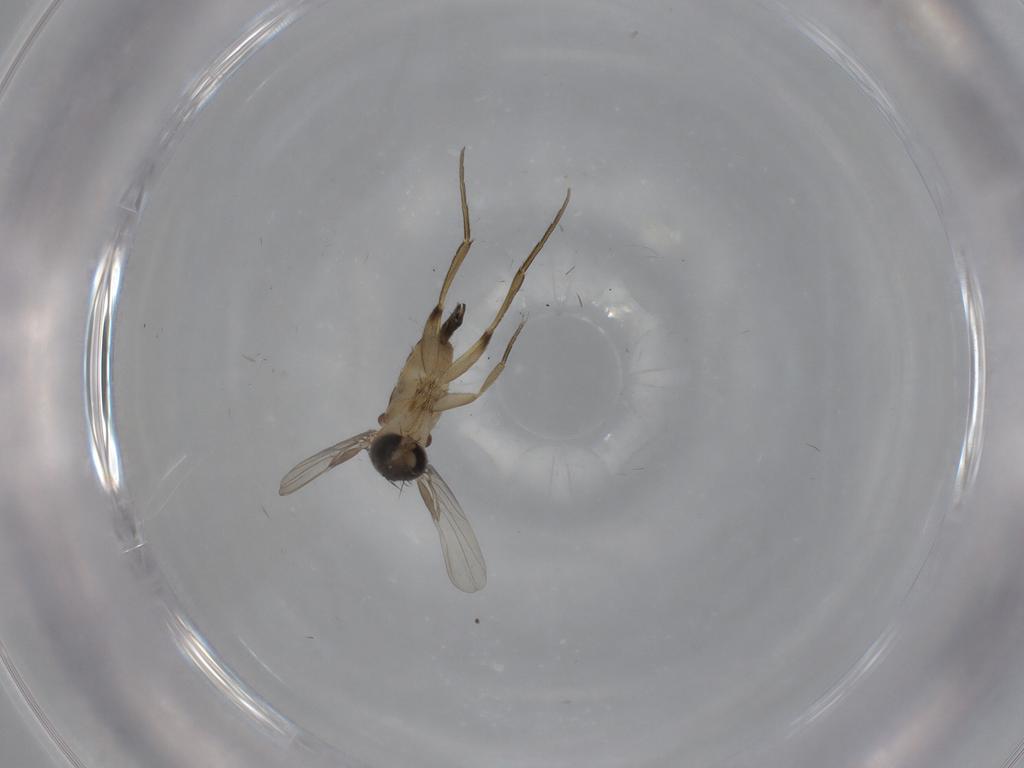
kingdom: Animalia
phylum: Arthropoda
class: Insecta
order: Diptera
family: Phoridae
